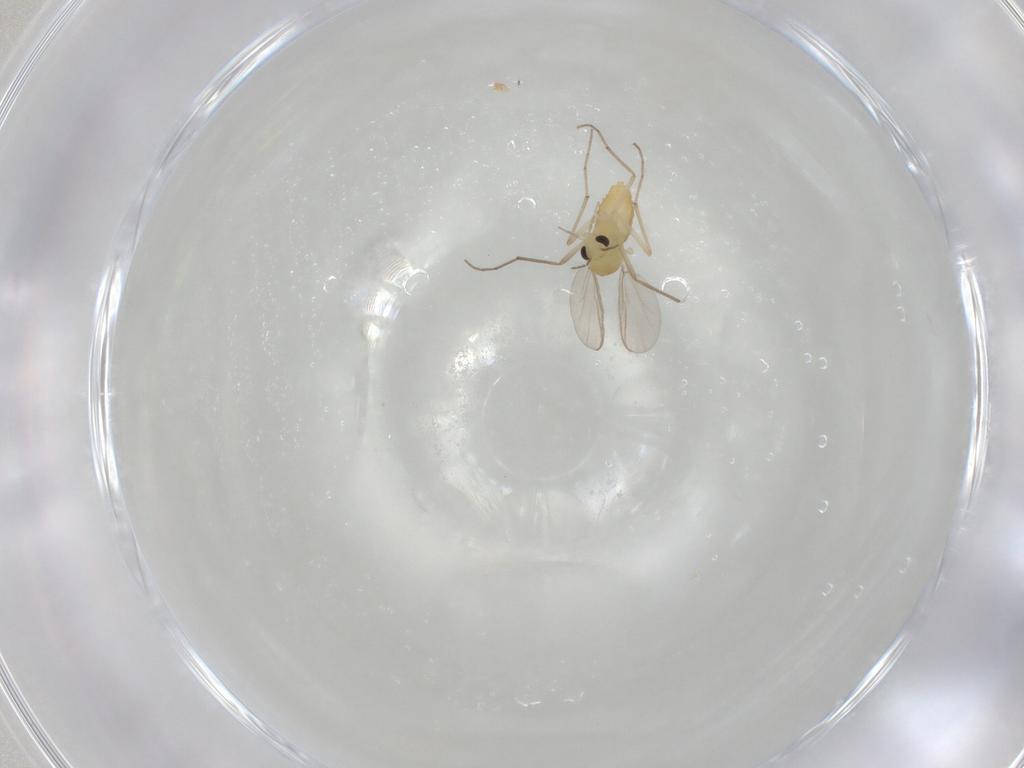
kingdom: Animalia
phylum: Arthropoda
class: Insecta
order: Diptera
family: Chironomidae
